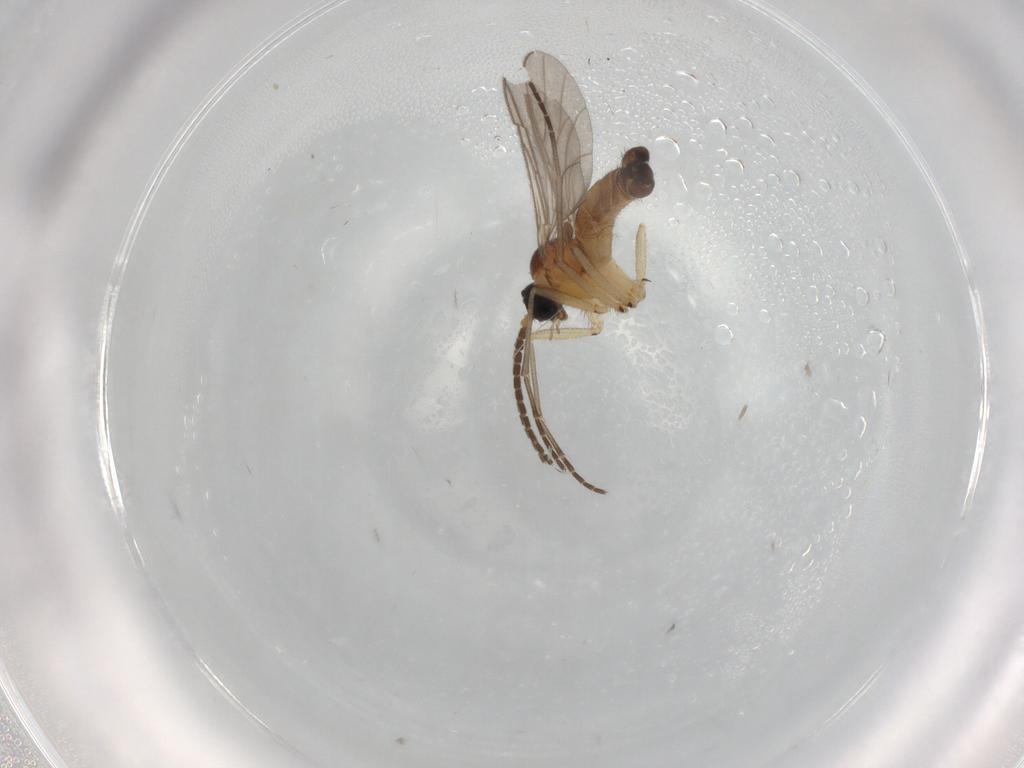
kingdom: Animalia
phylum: Arthropoda
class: Insecta
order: Diptera
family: Sciaridae
